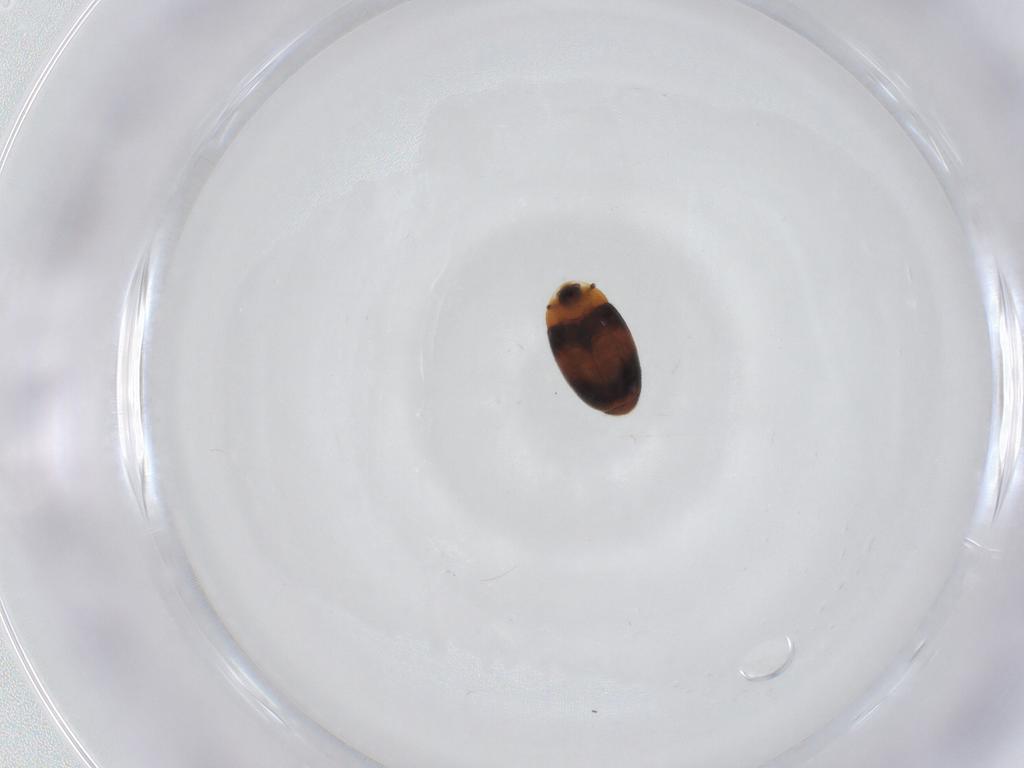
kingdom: Animalia
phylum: Arthropoda
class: Insecta
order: Coleoptera
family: Corylophidae
